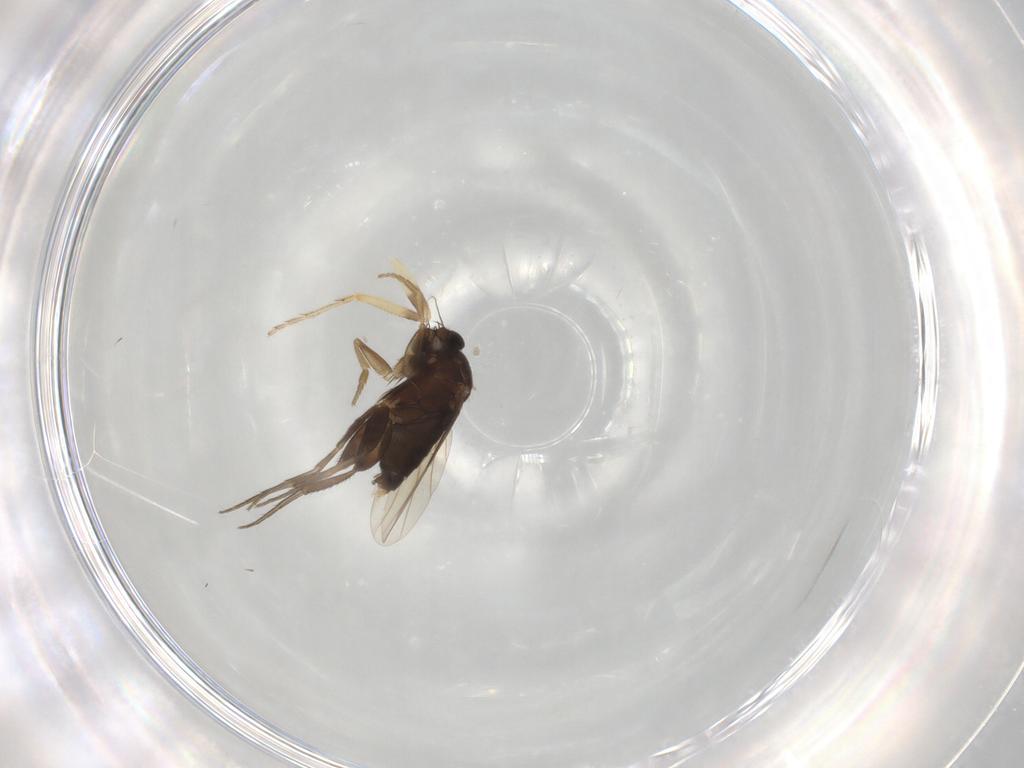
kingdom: Animalia
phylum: Arthropoda
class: Insecta
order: Diptera
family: Phoridae
